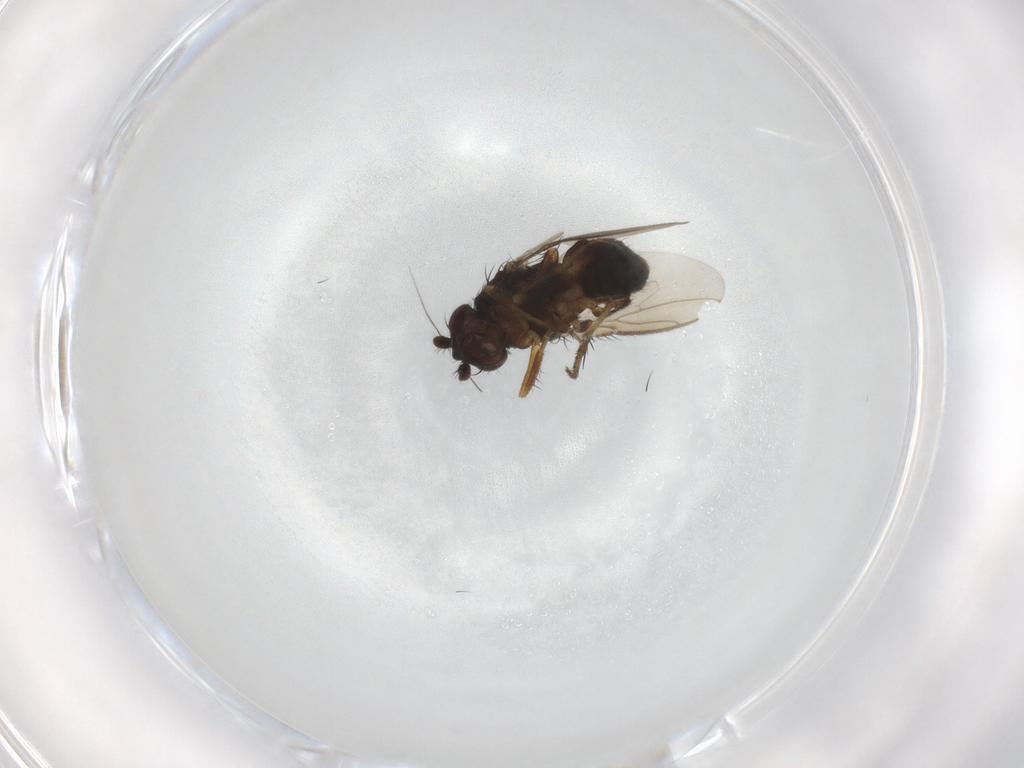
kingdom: Animalia
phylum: Arthropoda
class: Insecta
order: Diptera
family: Sphaeroceridae
